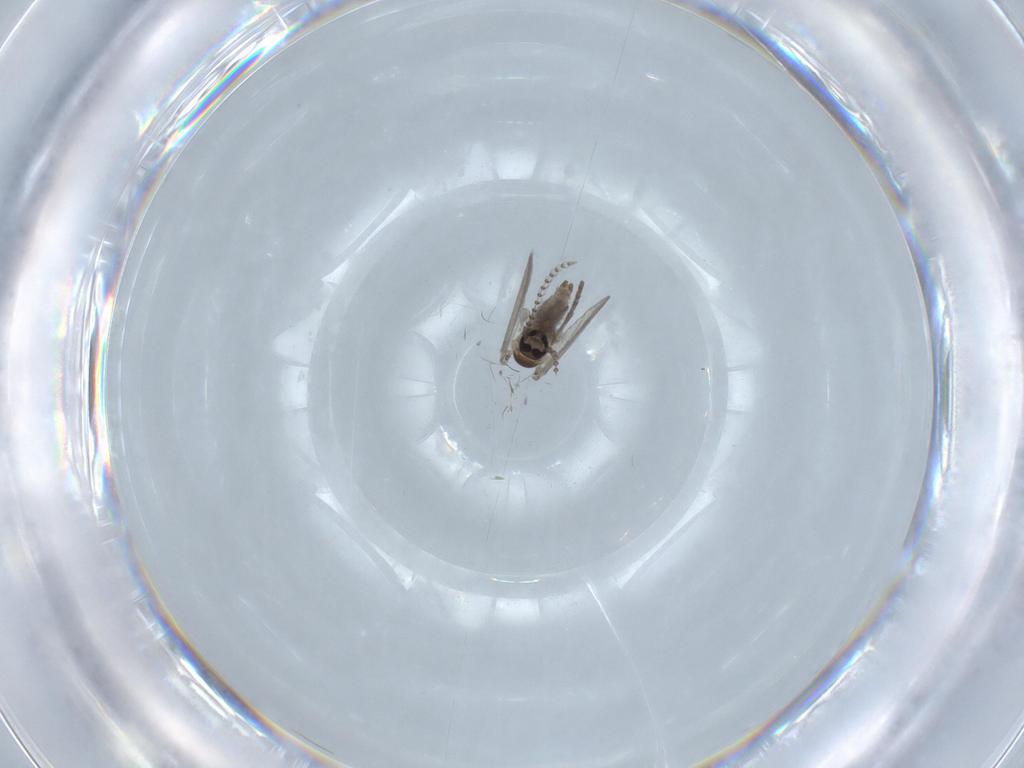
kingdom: Animalia
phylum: Arthropoda
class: Insecta
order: Diptera
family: Psychodidae
